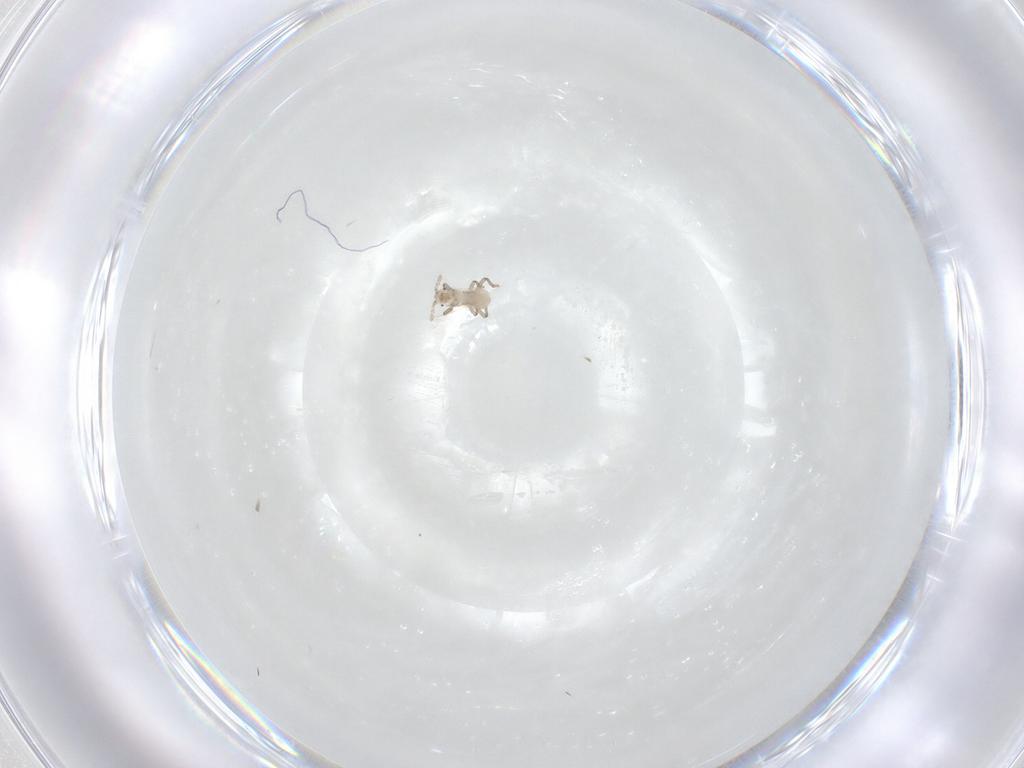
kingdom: Animalia
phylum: Arthropoda
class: Insecta
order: Hemiptera
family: Aphididae
